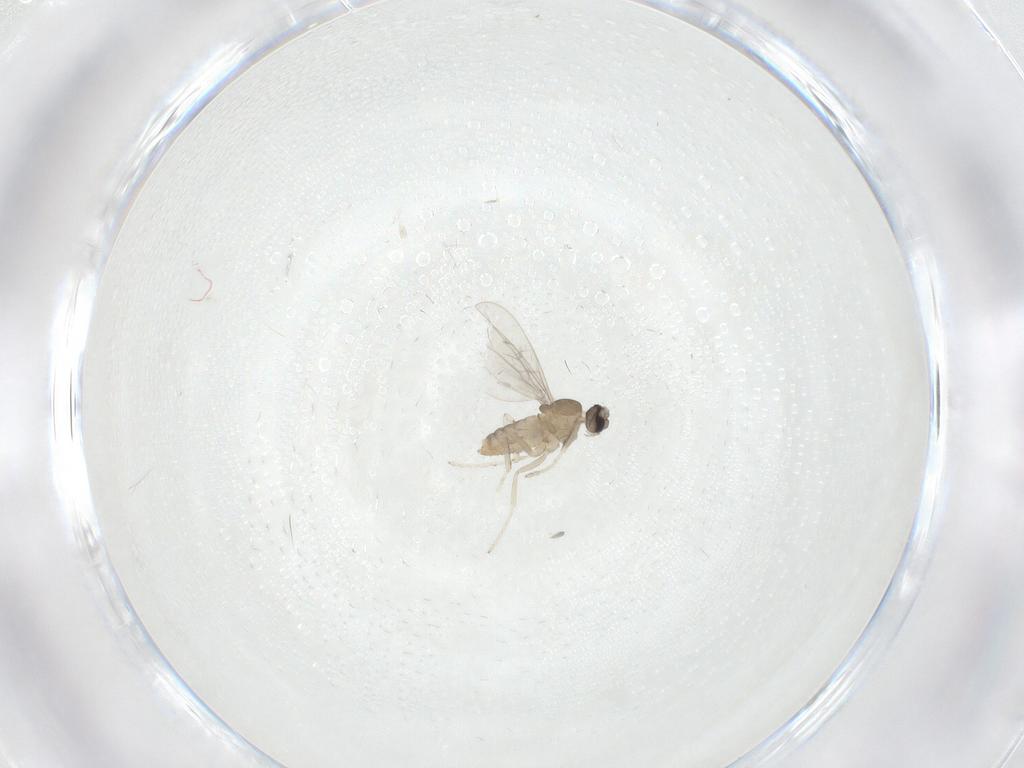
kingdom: Animalia
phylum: Arthropoda
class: Insecta
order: Diptera
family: Cecidomyiidae
